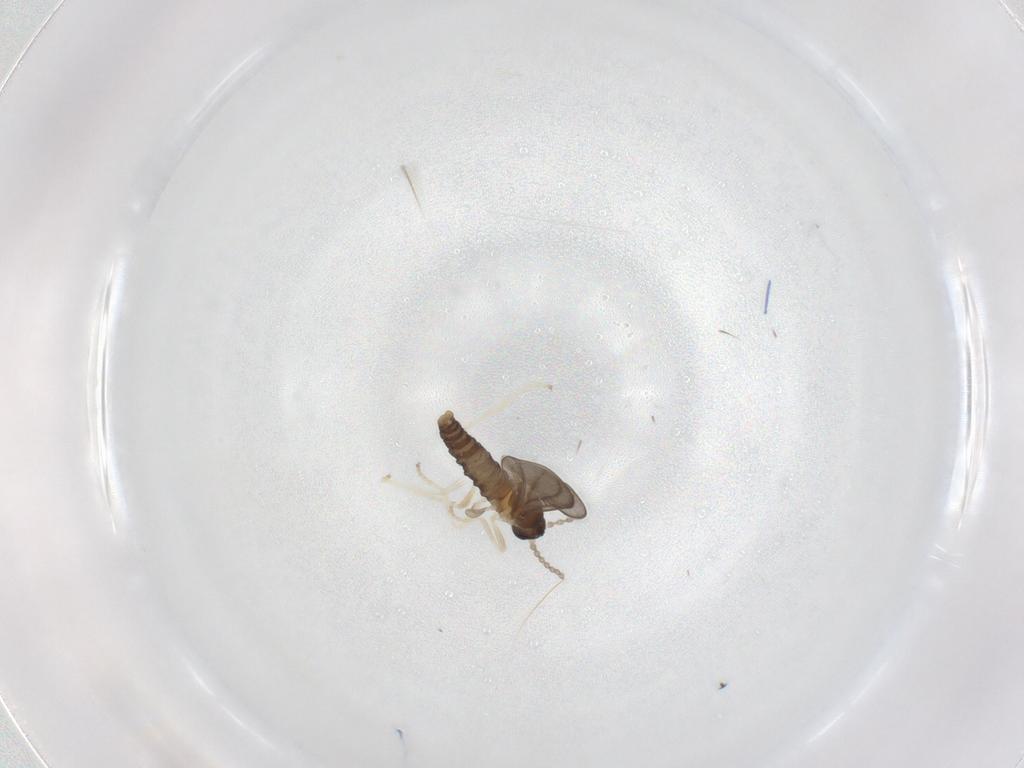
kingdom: Animalia
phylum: Arthropoda
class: Insecta
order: Diptera
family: Cecidomyiidae
